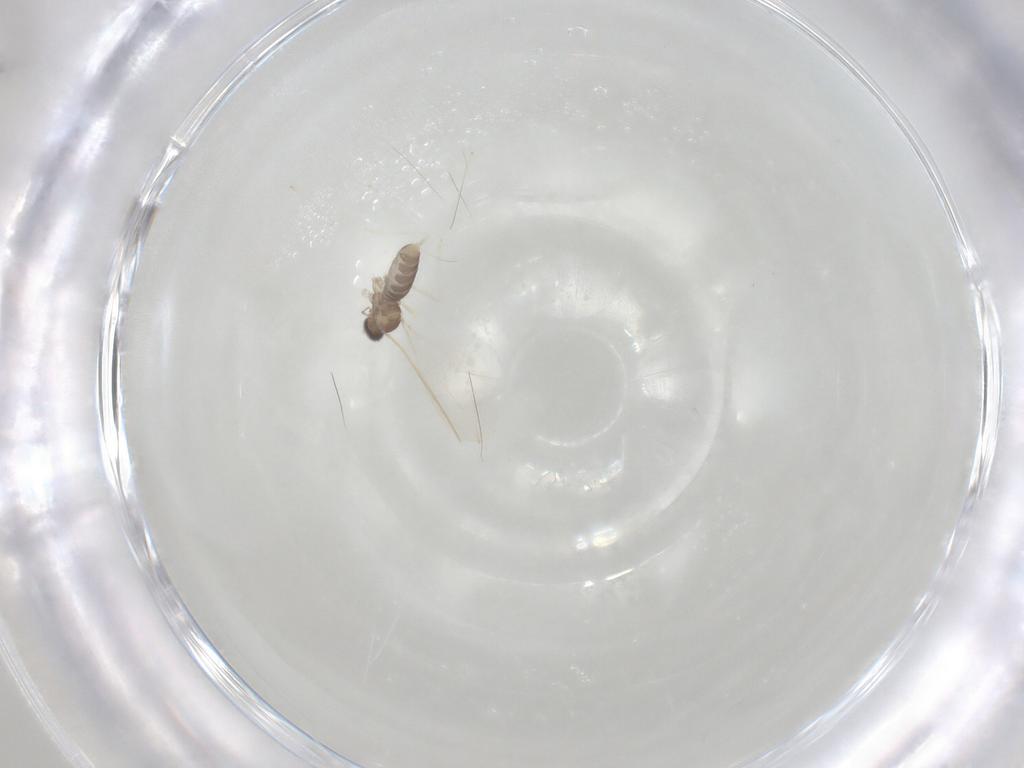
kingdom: Animalia
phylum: Arthropoda
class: Insecta
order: Diptera
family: Cecidomyiidae
